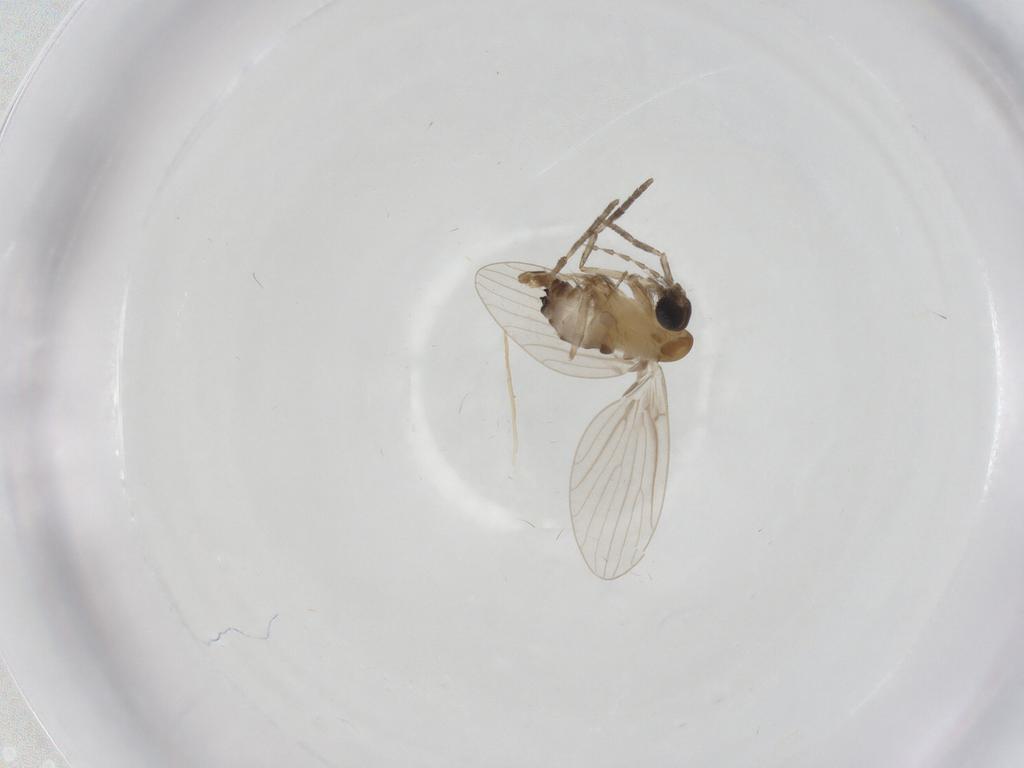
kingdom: Animalia
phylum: Arthropoda
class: Insecta
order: Diptera
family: Psychodidae
